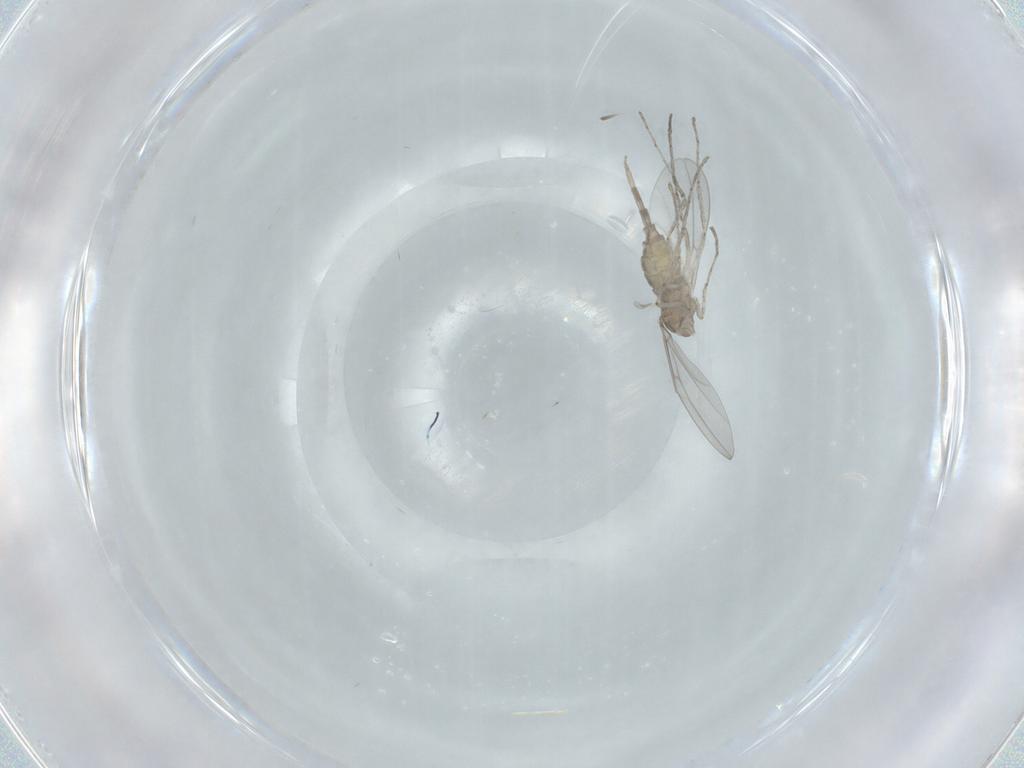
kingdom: Animalia
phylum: Arthropoda
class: Insecta
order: Diptera
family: Cecidomyiidae
